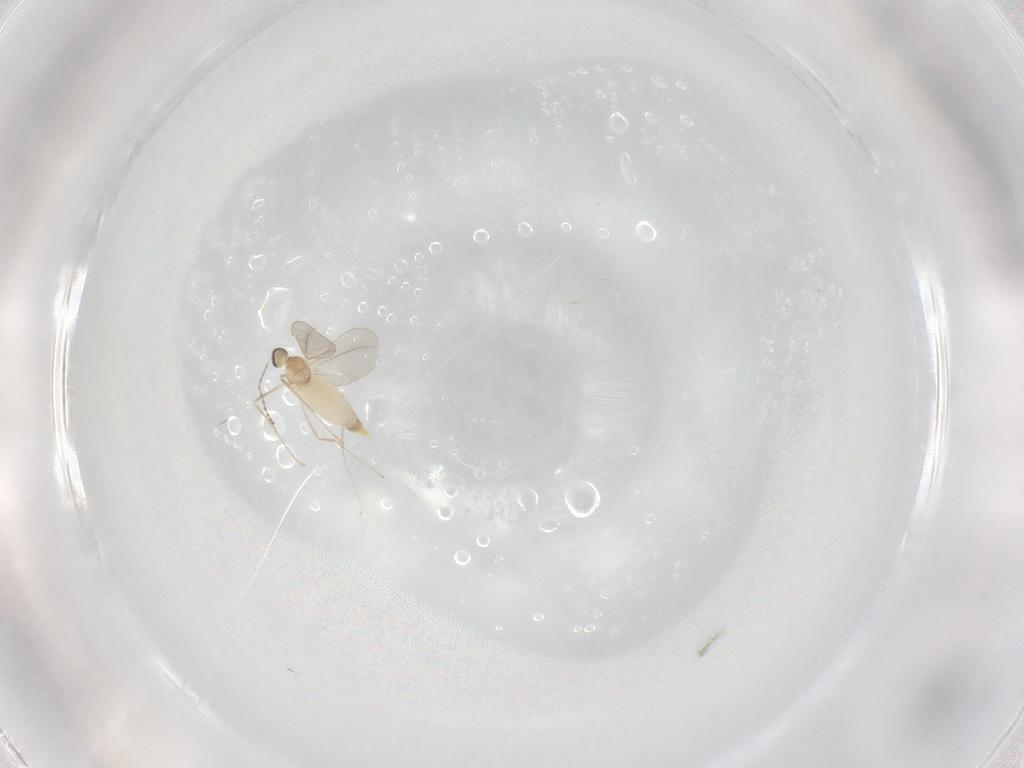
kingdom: Animalia
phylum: Arthropoda
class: Insecta
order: Diptera
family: Cecidomyiidae
